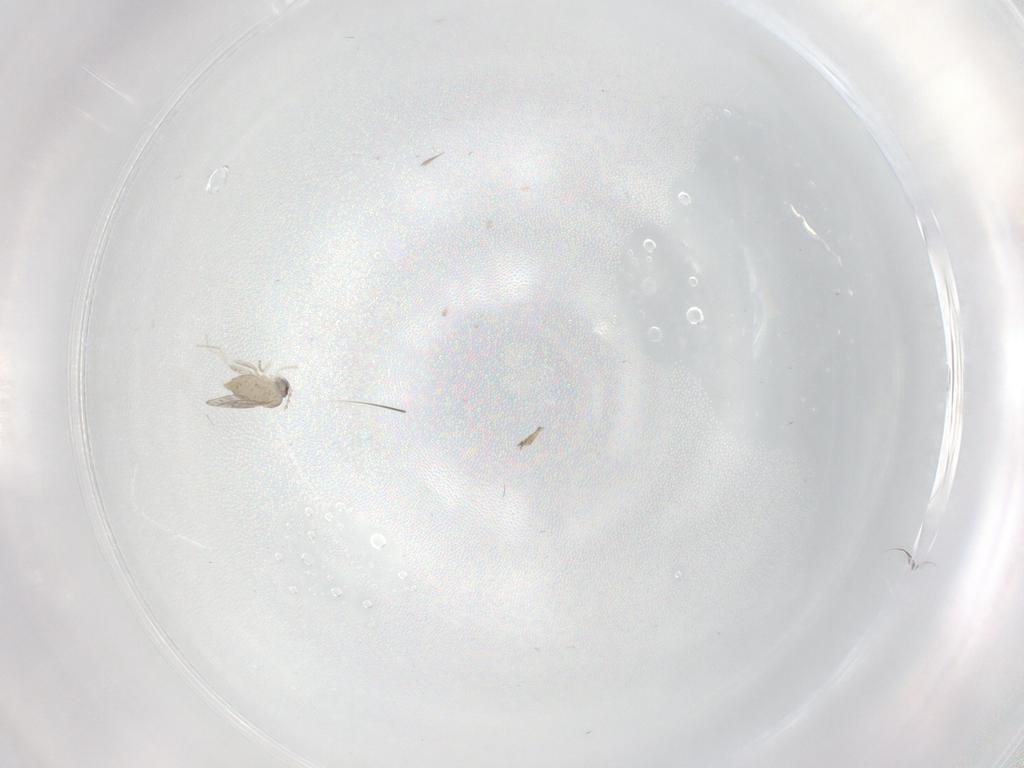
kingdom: Animalia
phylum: Arthropoda
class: Insecta
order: Diptera
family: Cecidomyiidae
